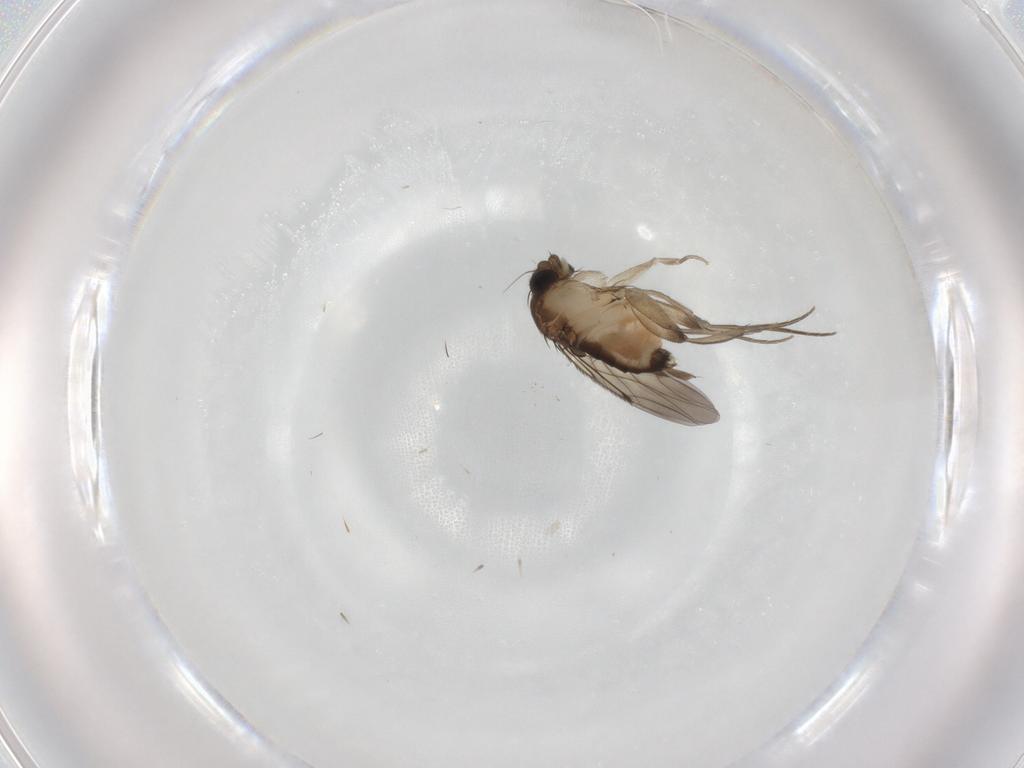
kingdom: Animalia
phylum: Arthropoda
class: Insecta
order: Diptera
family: Phoridae
